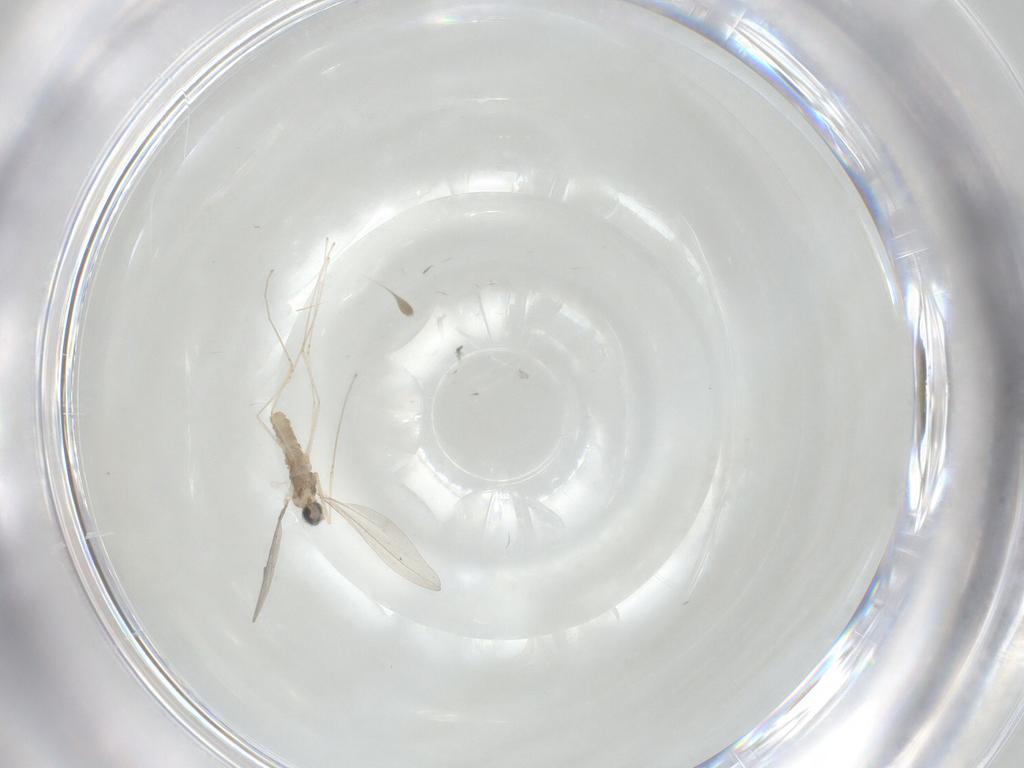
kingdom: Animalia
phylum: Arthropoda
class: Insecta
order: Diptera
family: Cecidomyiidae
